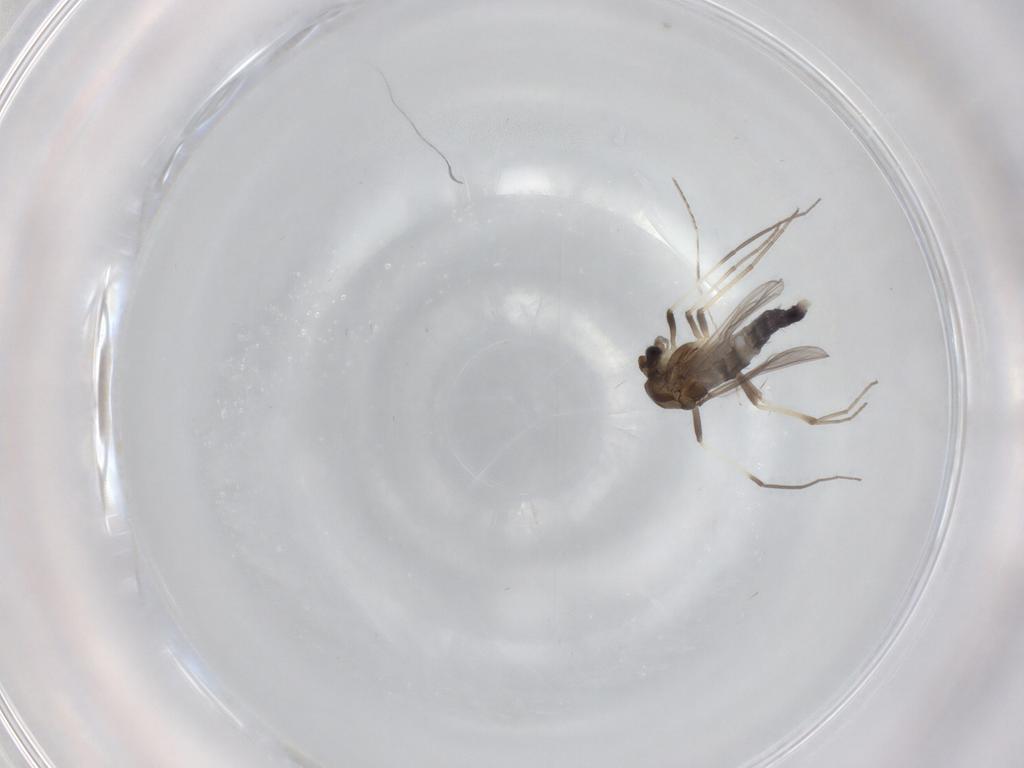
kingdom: Animalia
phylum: Arthropoda
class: Insecta
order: Diptera
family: Chironomidae
